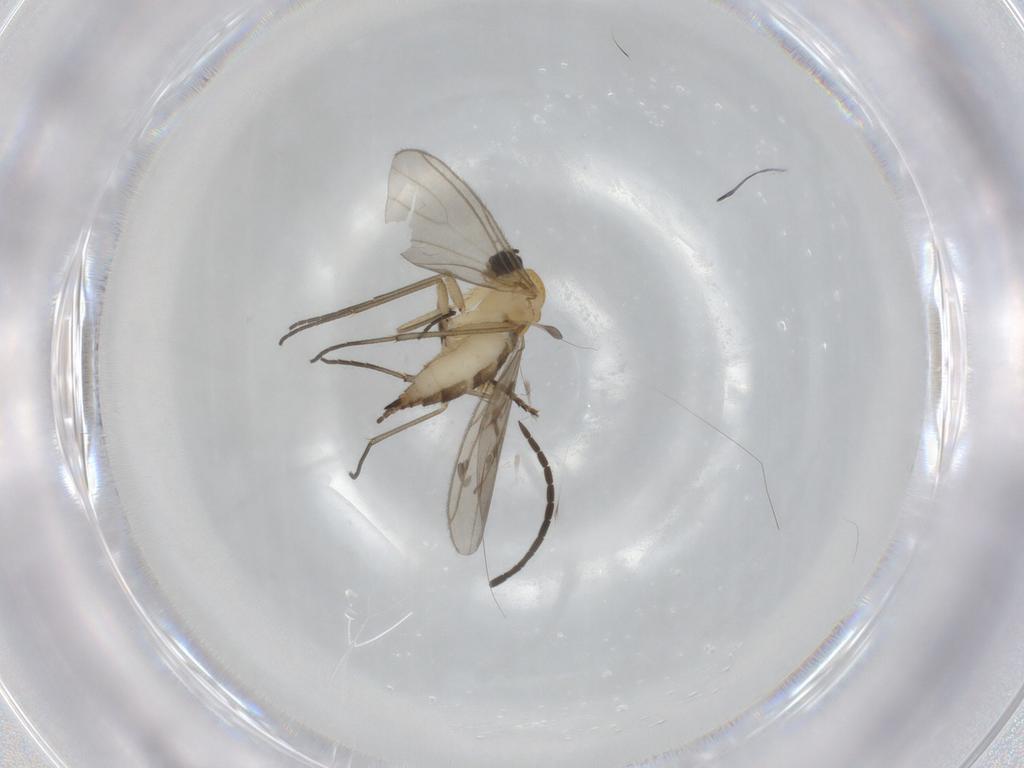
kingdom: Animalia
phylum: Arthropoda
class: Insecta
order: Diptera
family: Sciaridae
